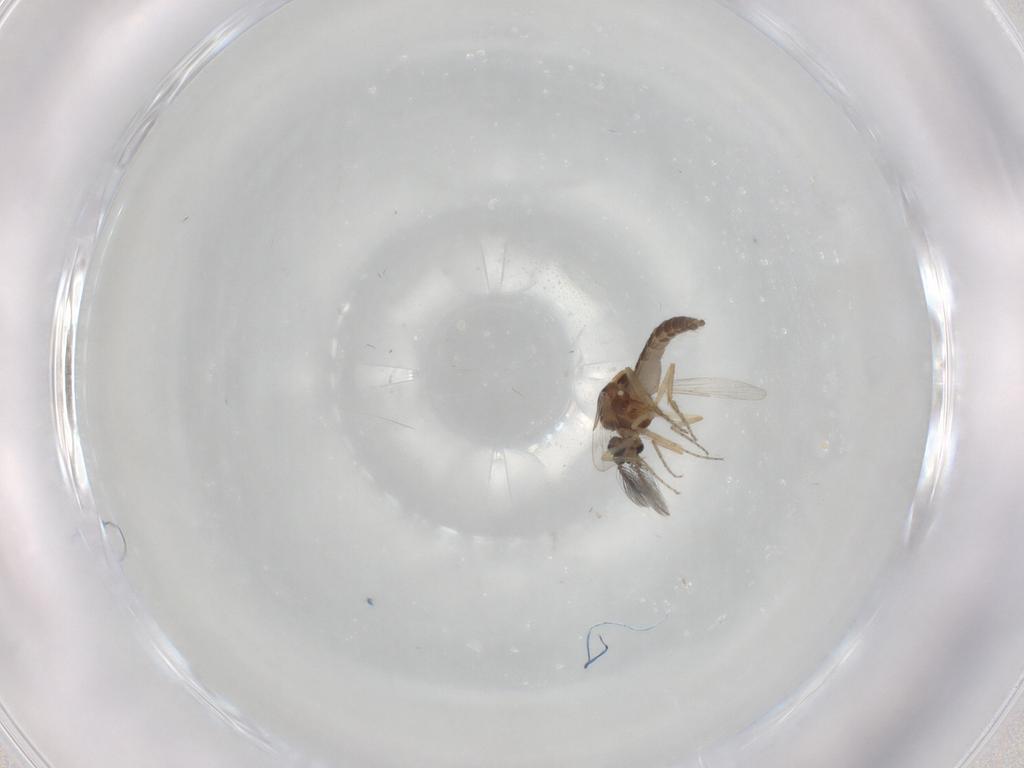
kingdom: Animalia
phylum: Arthropoda
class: Insecta
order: Diptera
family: Ceratopogonidae
